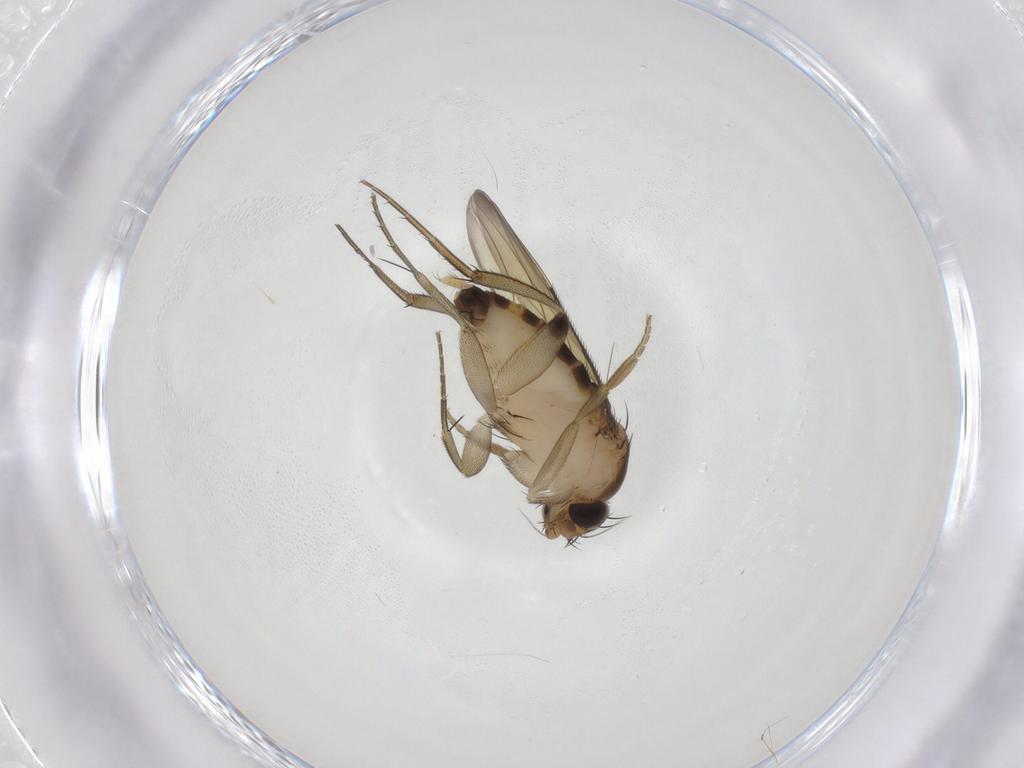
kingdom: Animalia
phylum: Arthropoda
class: Insecta
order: Diptera
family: Phoridae
